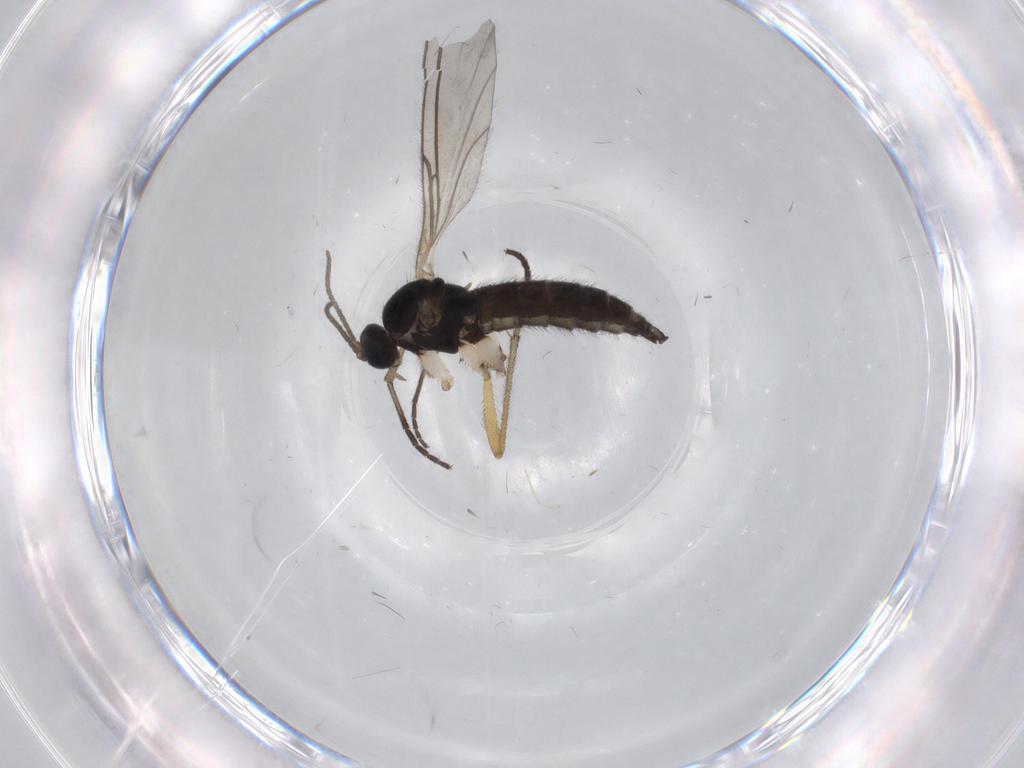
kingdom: Animalia
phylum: Arthropoda
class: Insecta
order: Diptera
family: Sciaridae
